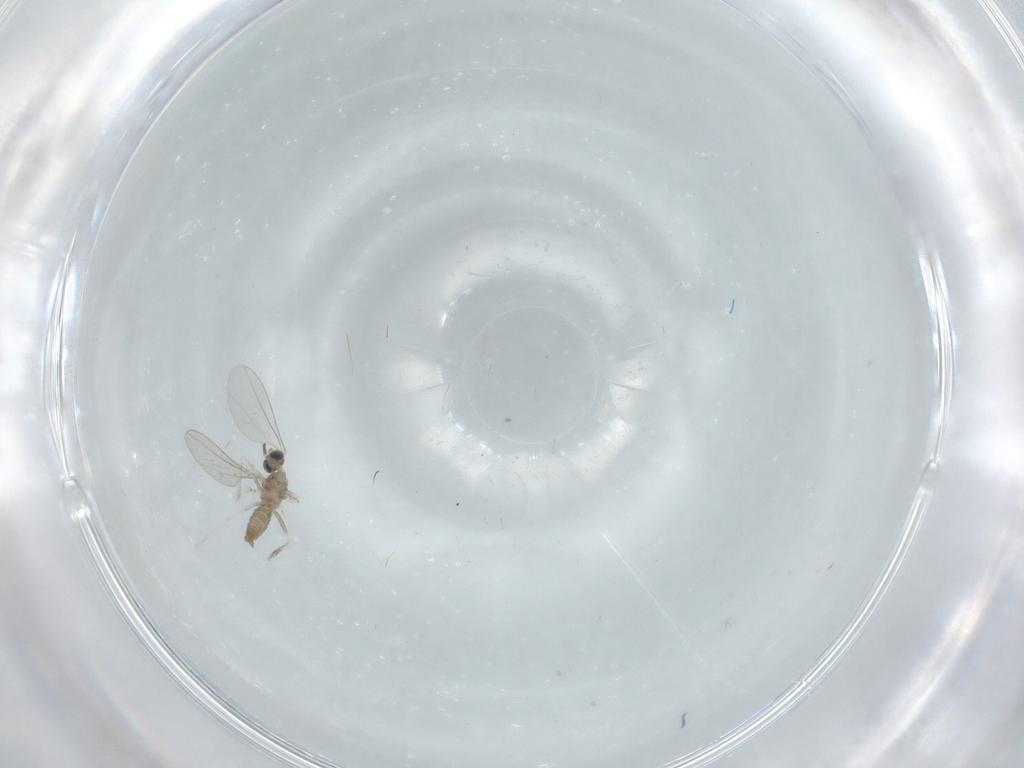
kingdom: Animalia
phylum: Arthropoda
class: Insecta
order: Diptera
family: Cecidomyiidae
